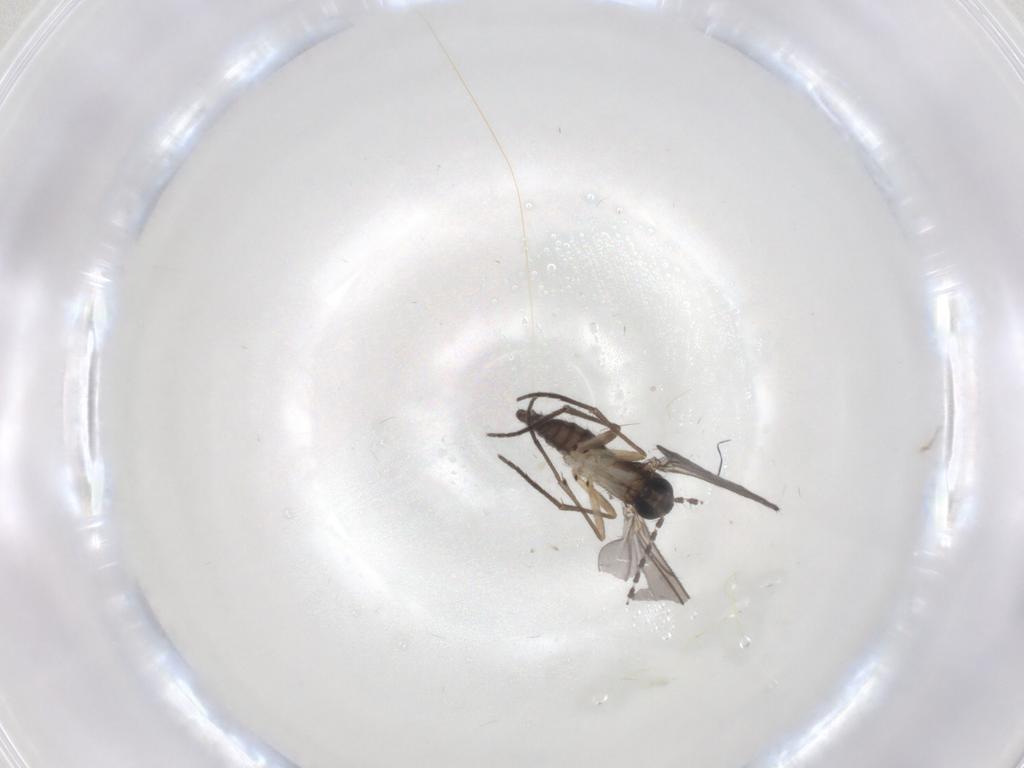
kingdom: Animalia
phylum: Arthropoda
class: Insecta
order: Diptera
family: Sciaridae
